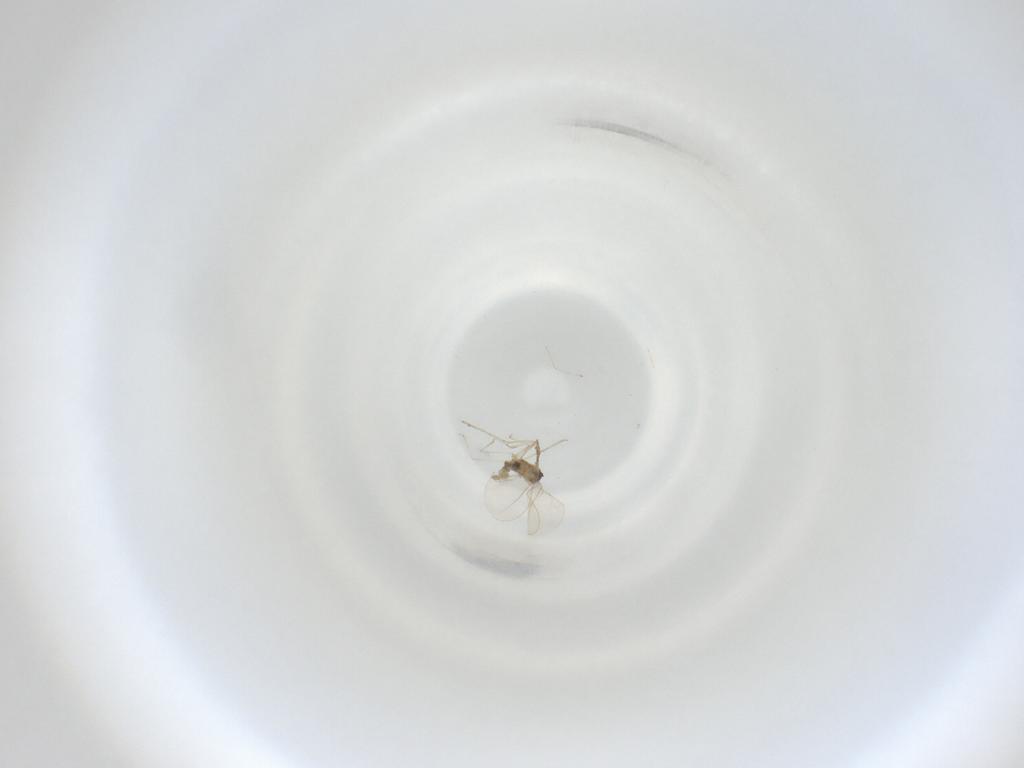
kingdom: Animalia
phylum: Arthropoda
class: Insecta
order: Diptera
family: Cecidomyiidae
